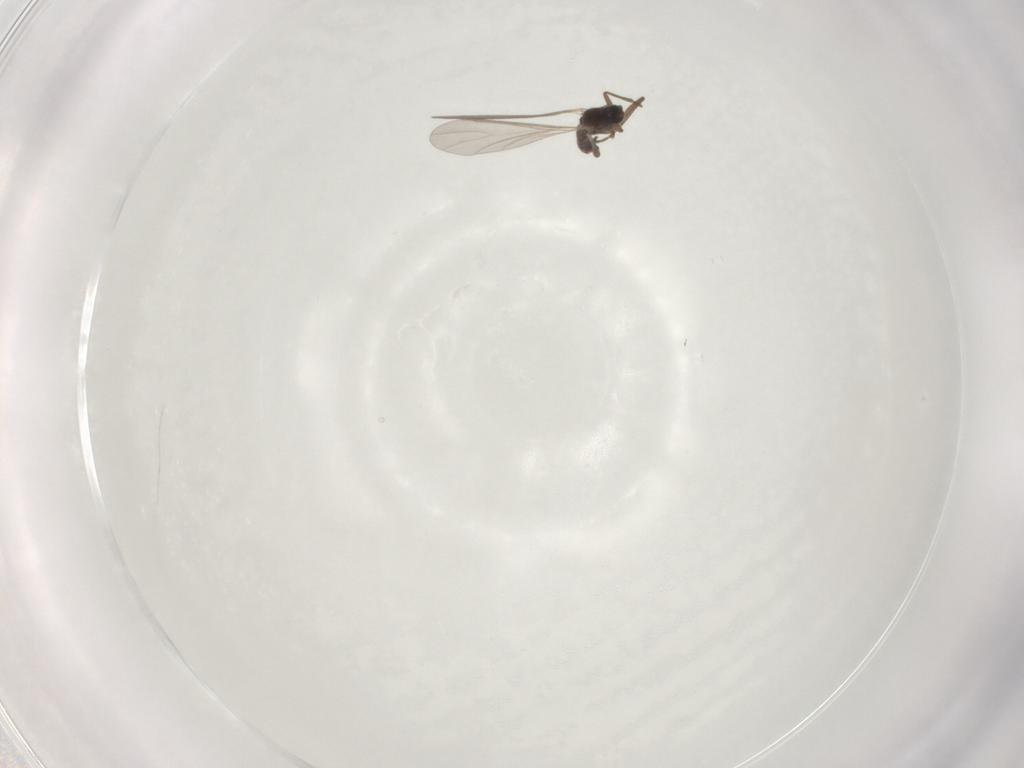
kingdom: Animalia
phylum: Arthropoda
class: Insecta
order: Diptera
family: Sciaridae
